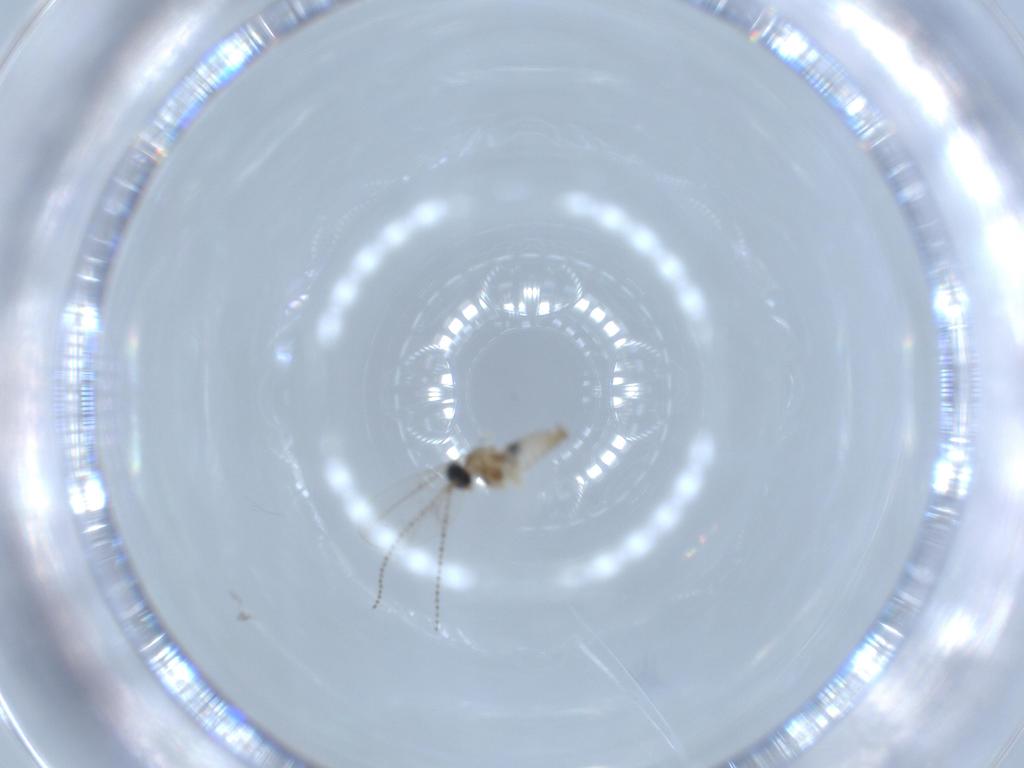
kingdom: Animalia
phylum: Arthropoda
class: Insecta
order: Diptera
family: Cecidomyiidae
